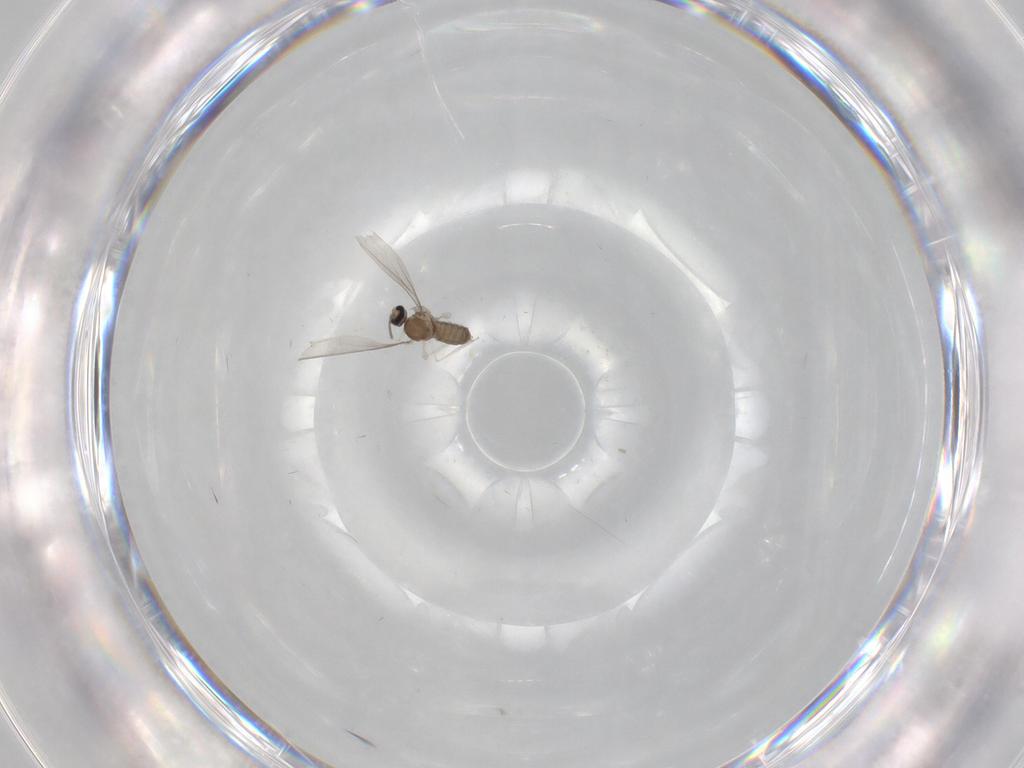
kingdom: Animalia
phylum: Arthropoda
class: Insecta
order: Diptera
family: Cecidomyiidae
